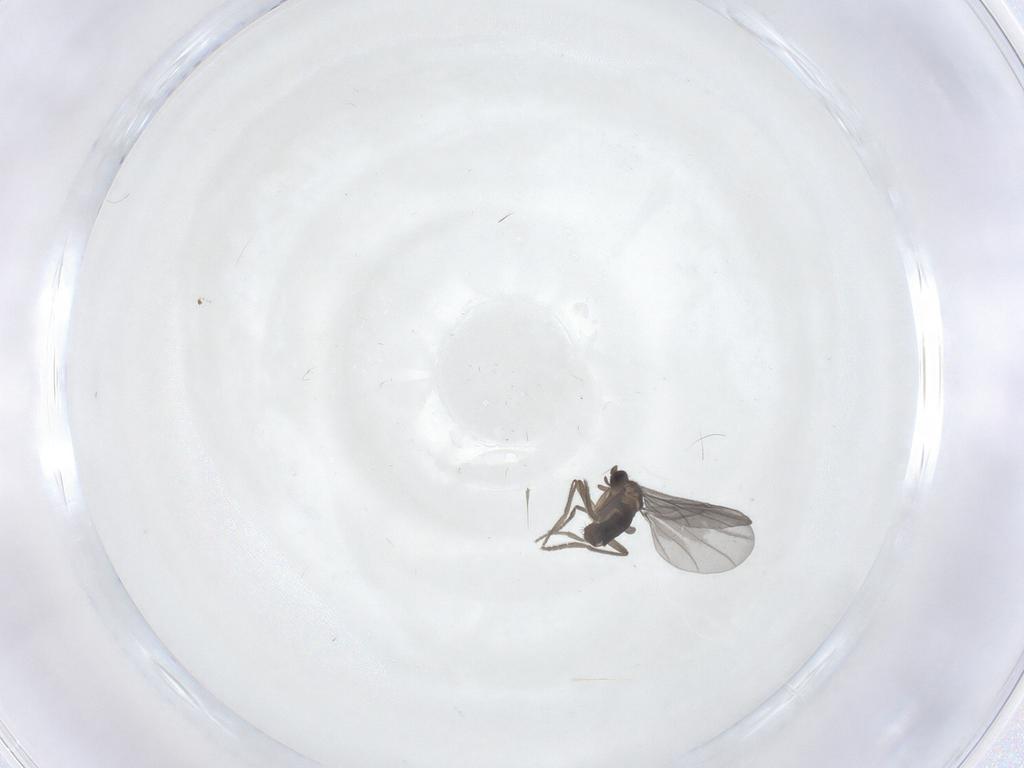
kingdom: Animalia
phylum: Arthropoda
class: Insecta
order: Diptera
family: Phoridae
